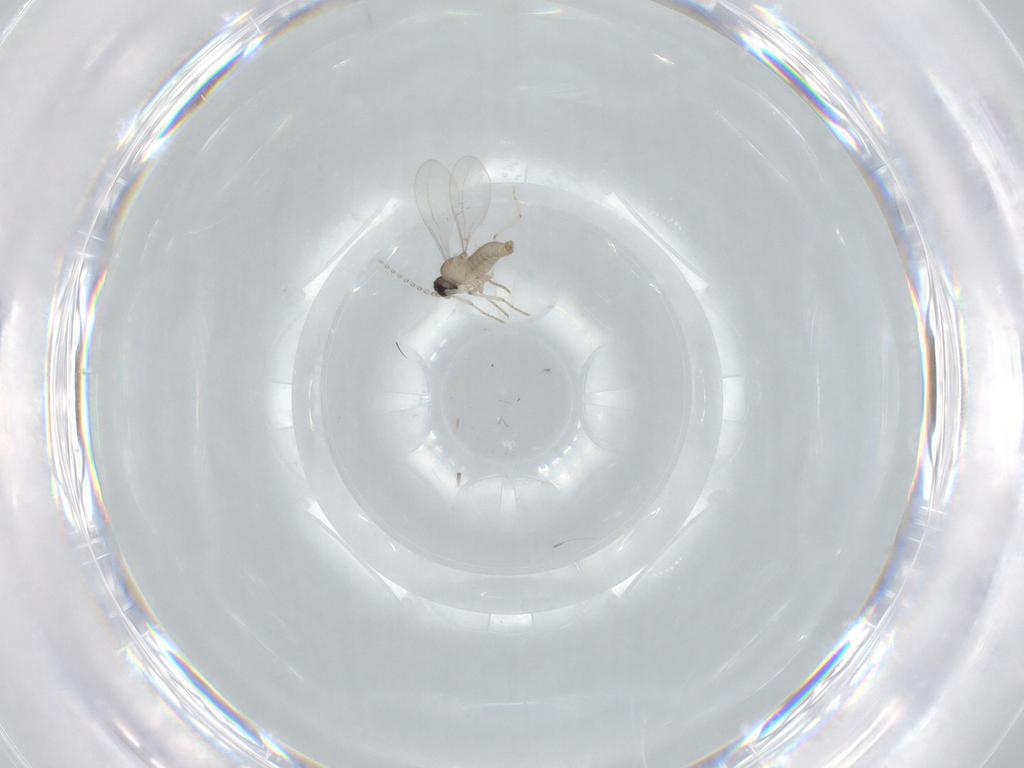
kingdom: Animalia
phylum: Arthropoda
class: Insecta
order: Diptera
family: Cecidomyiidae
